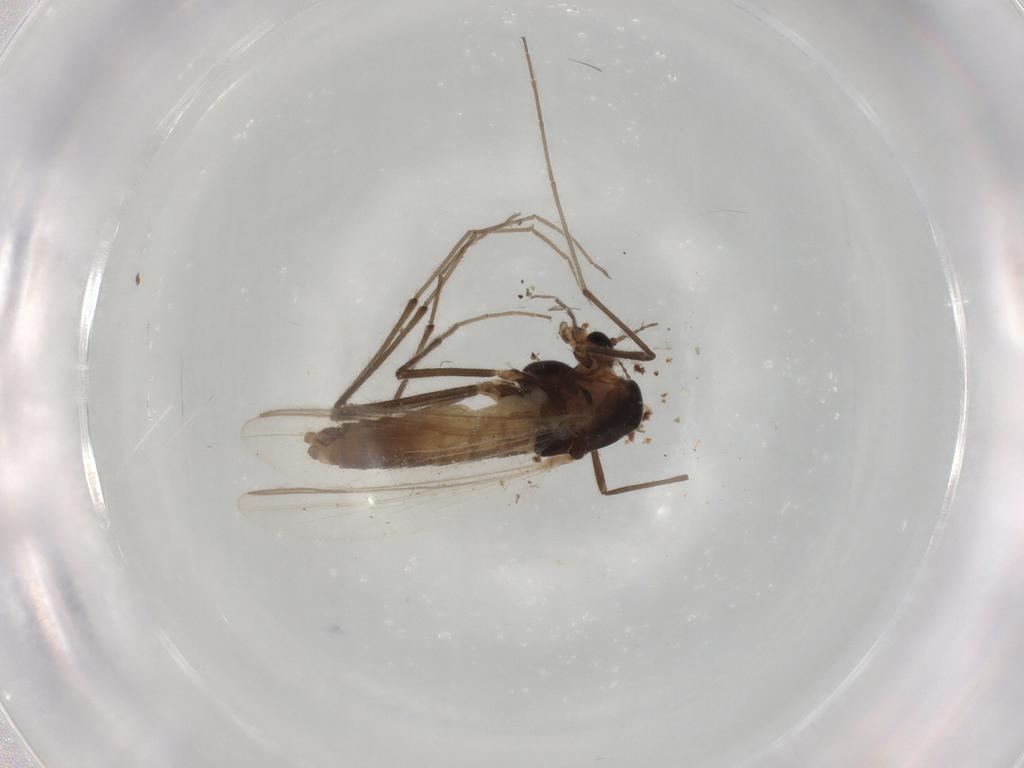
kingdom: Animalia
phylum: Arthropoda
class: Insecta
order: Diptera
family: Chironomidae
